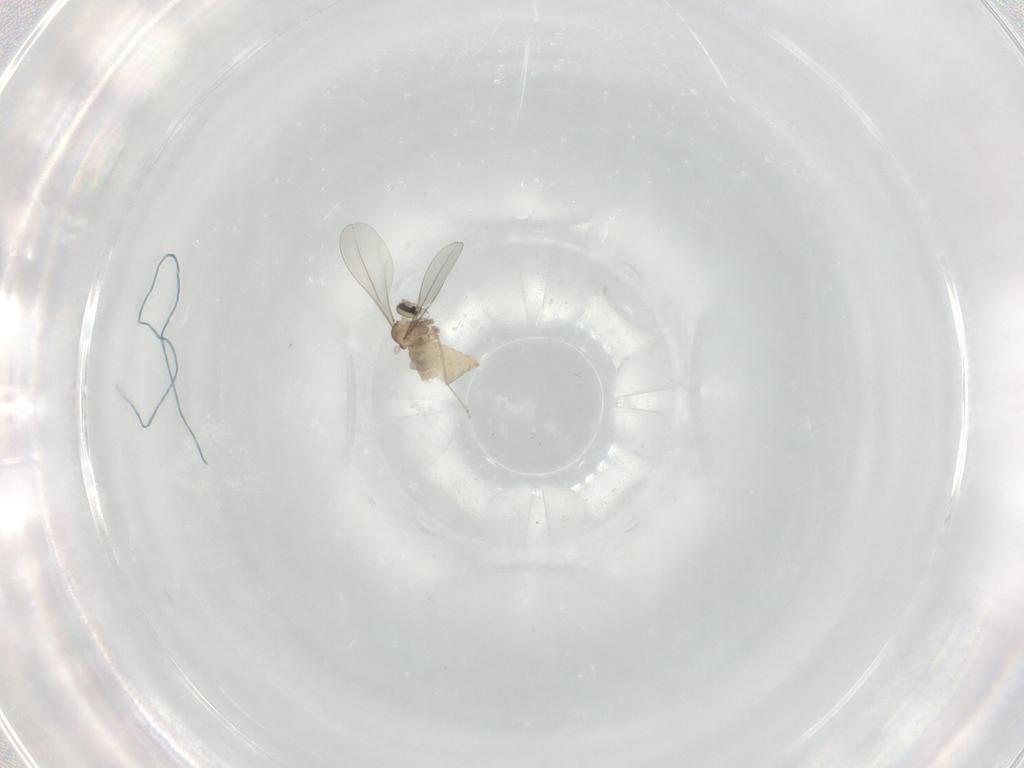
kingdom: Animalia
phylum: Arthropoda
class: Insecta
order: Diptera
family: Cecidomyiidae
